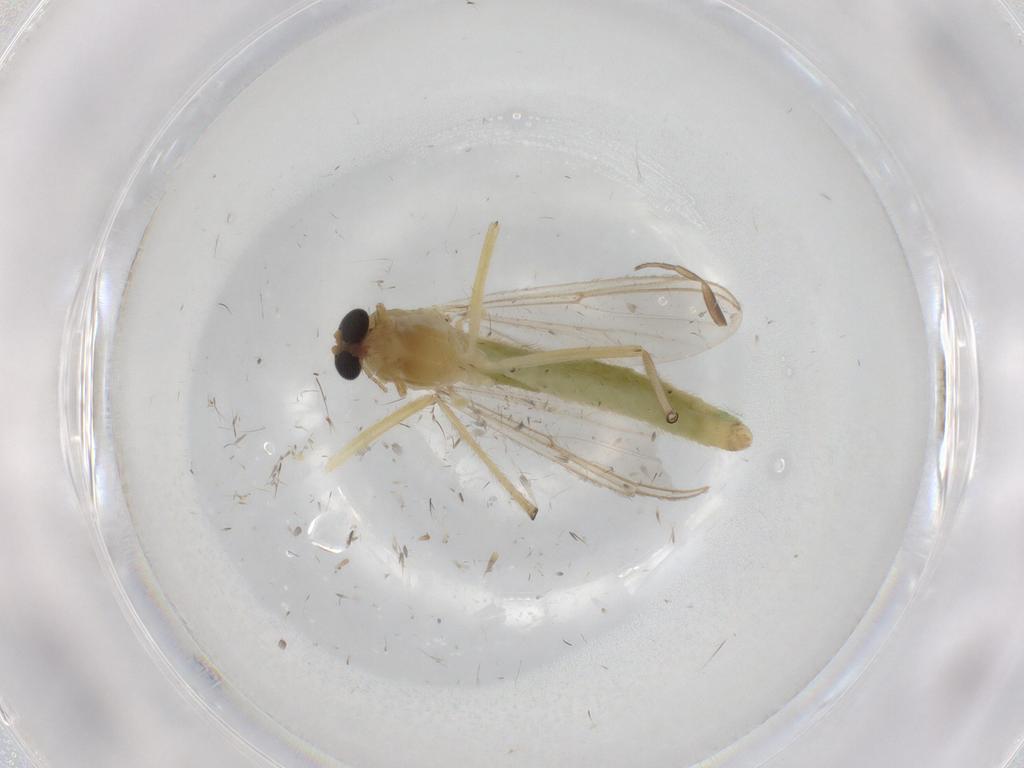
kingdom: Animalia
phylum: Arthropoda
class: Insecta
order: Diptera
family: Chironomidae
